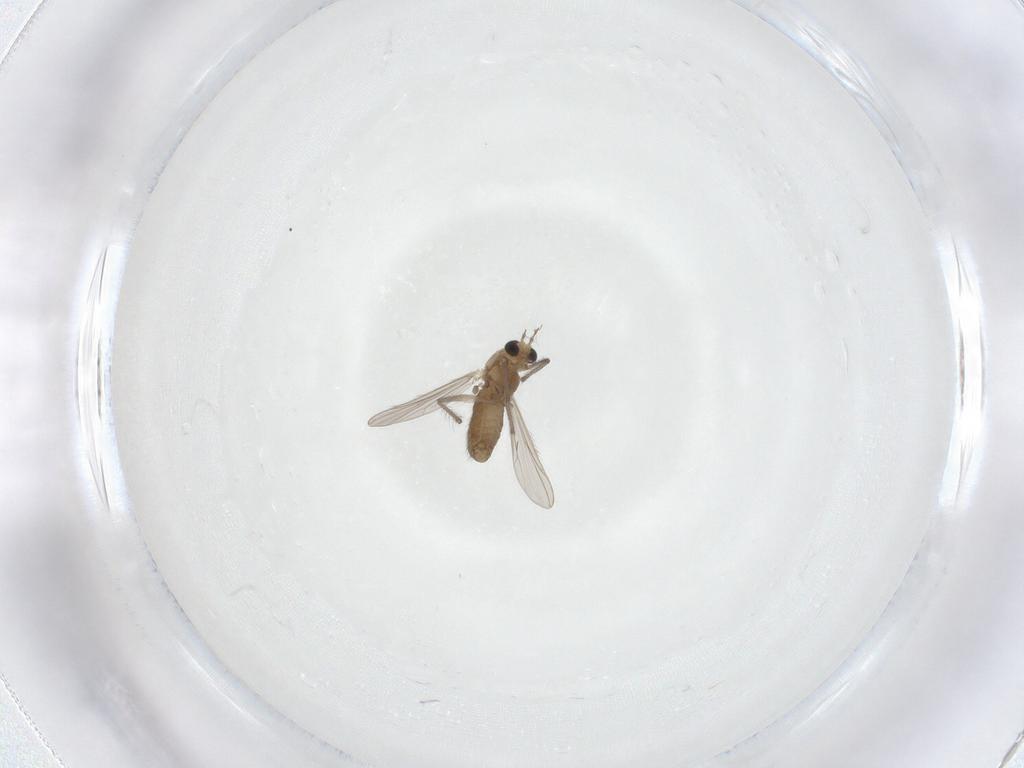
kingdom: Animalia
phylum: Arthropoda
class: Insecta
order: Diptera
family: Chironomidae
